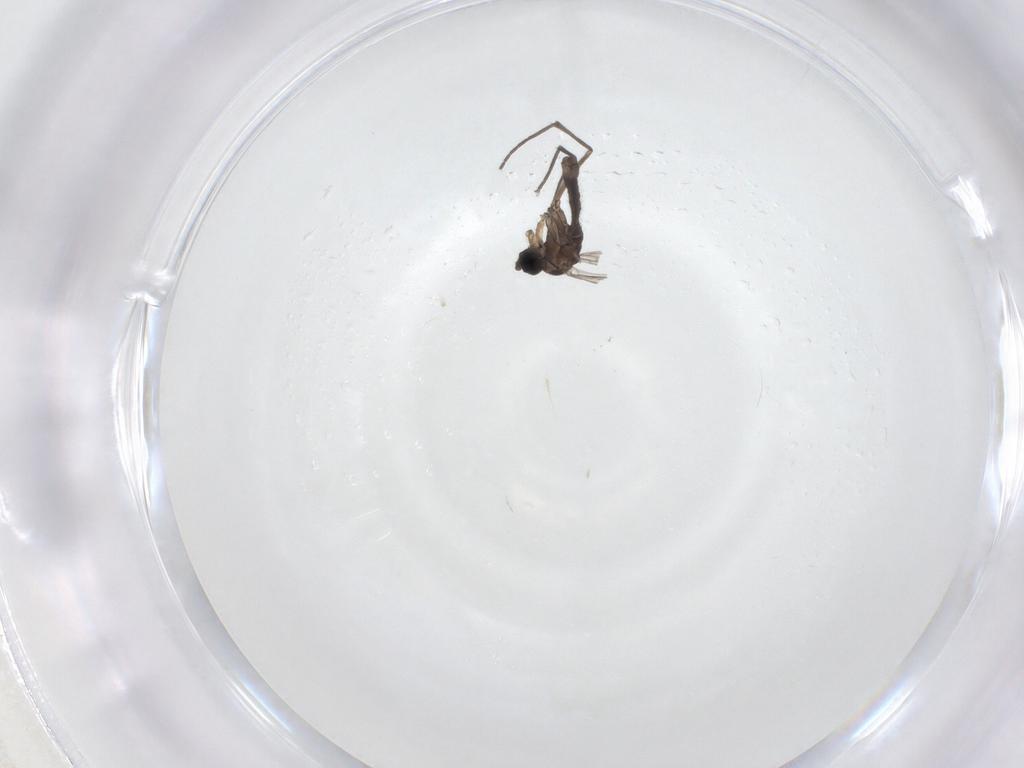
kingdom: Animalia
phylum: Arthropoda
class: Insecta
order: Diptera
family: Sciaridae
